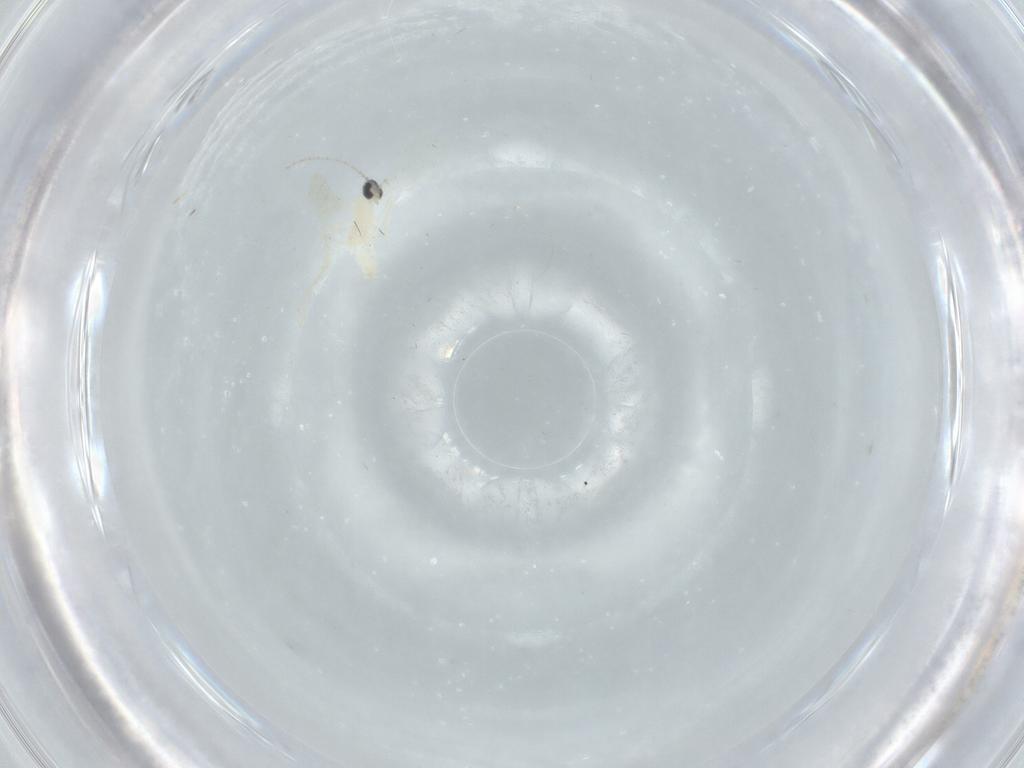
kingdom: Animalia
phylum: Arthropoda
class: Insecta
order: Diptera
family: Cecidomyiidae
